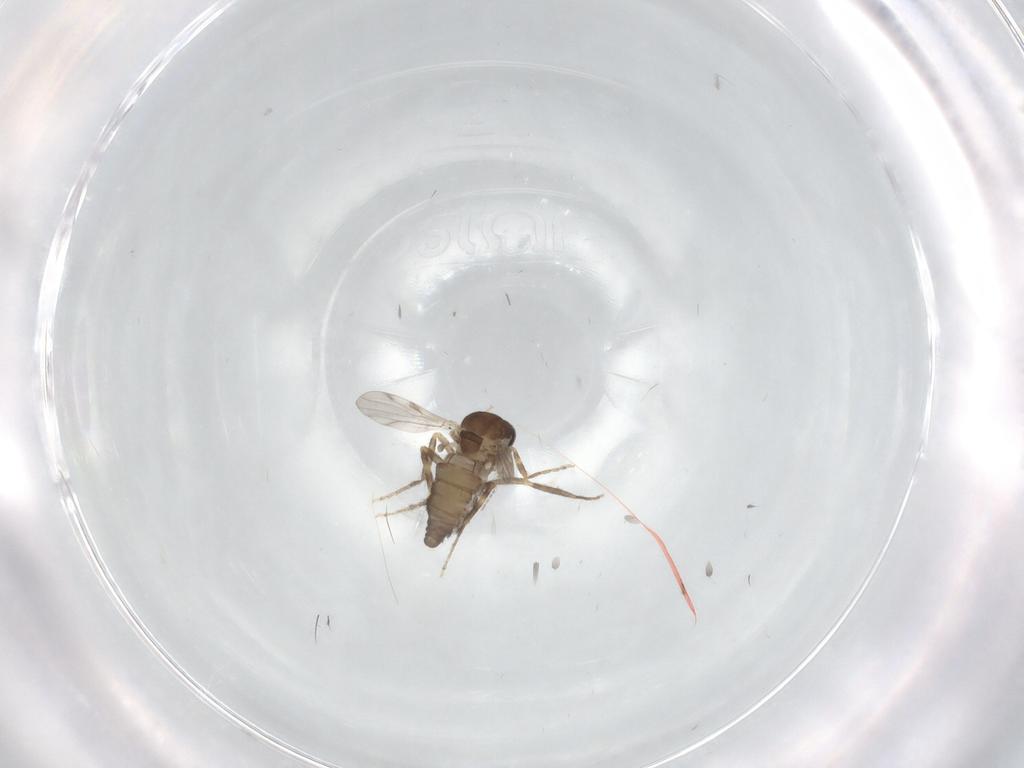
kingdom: Animalia
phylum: Arthropoda
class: Insecta
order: Diptera
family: Ceratopogonidae
